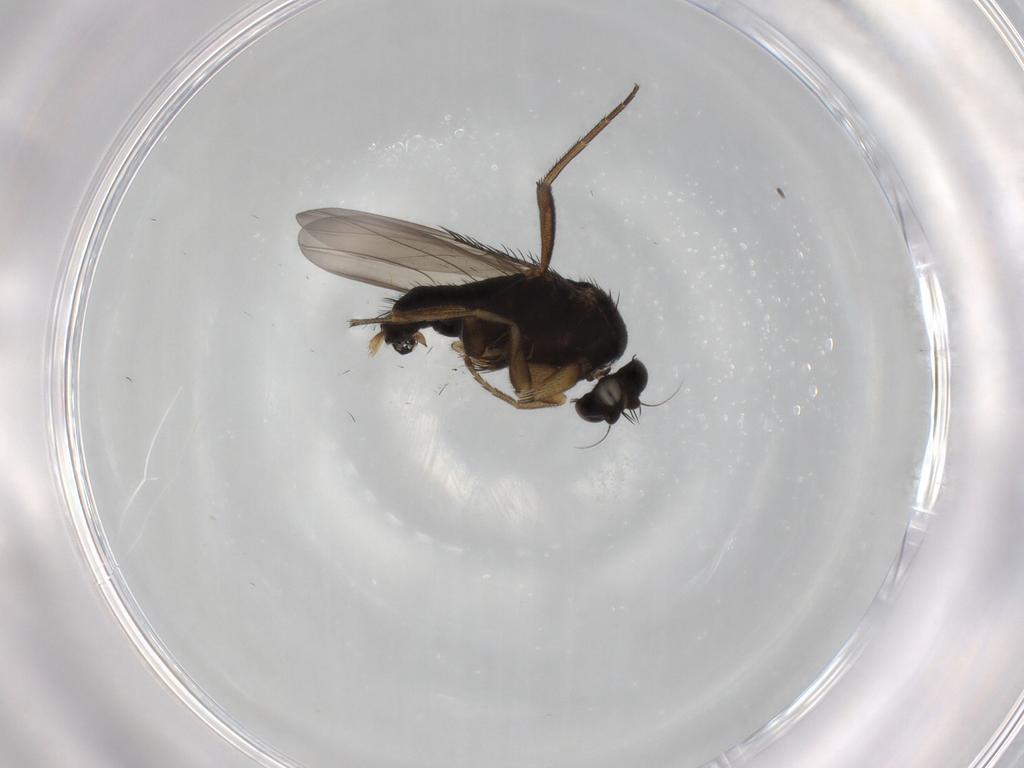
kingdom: Animalia
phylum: Arthropoda
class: Insecta
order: Diptera
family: Phoridae
